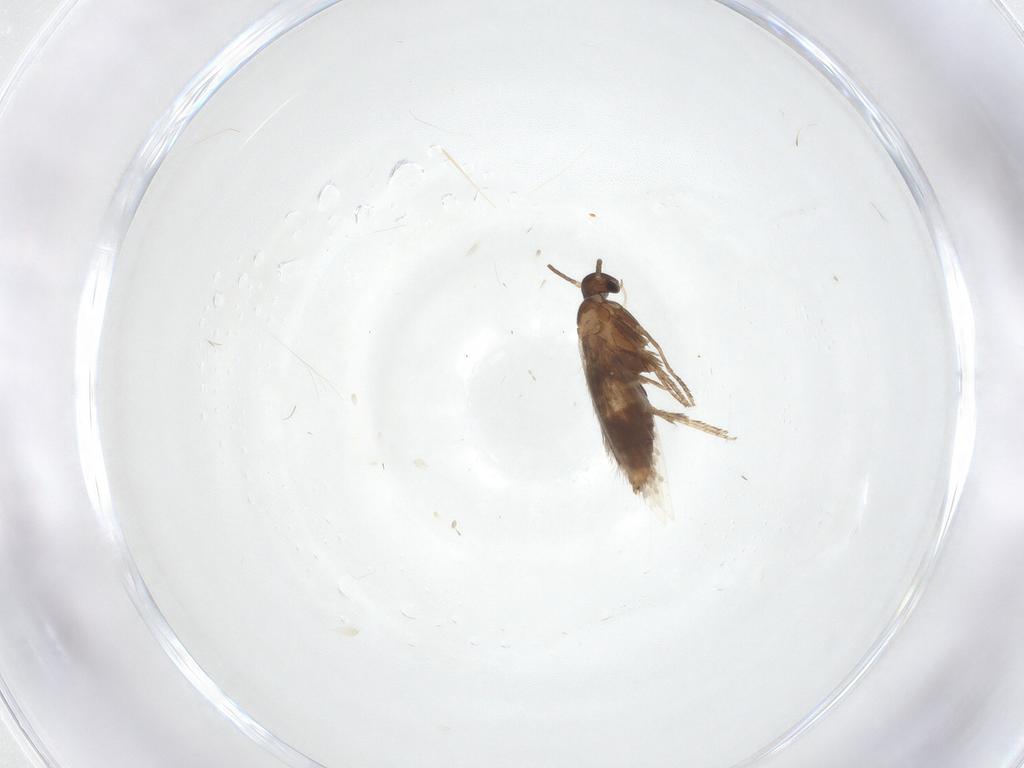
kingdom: Animalia
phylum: Arthropoda
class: Insecta
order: Lepidoptera
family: Heliozelidae
